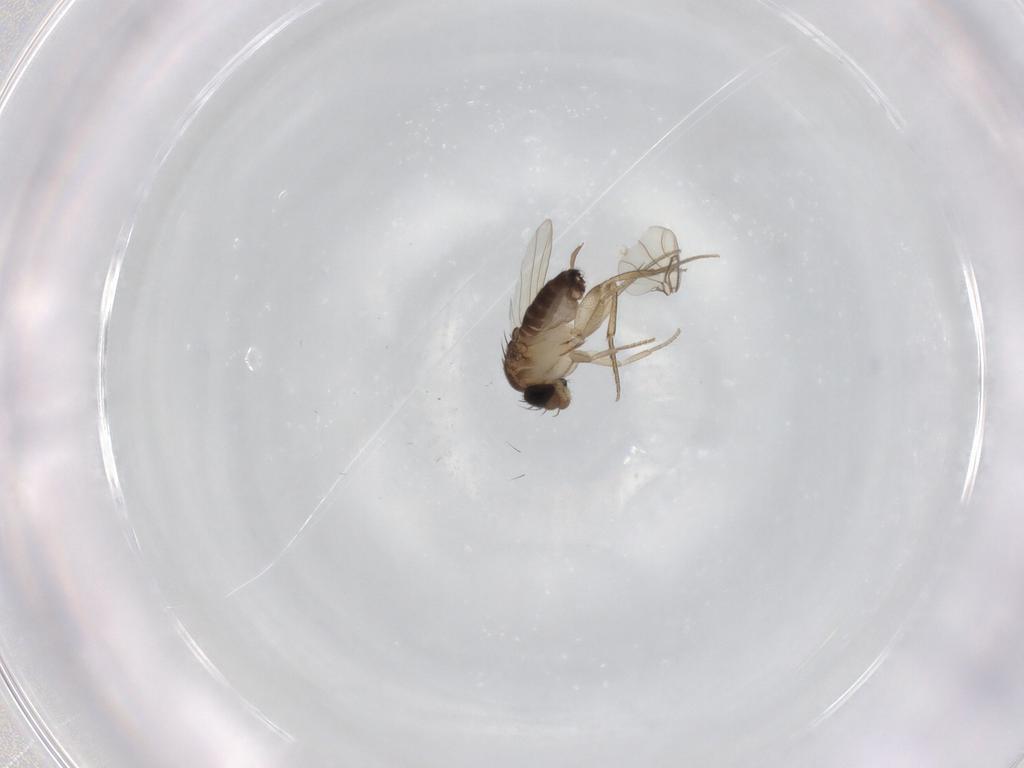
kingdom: Animalia
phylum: Arthropoda
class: Insecta
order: Diptera
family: Phoridae
